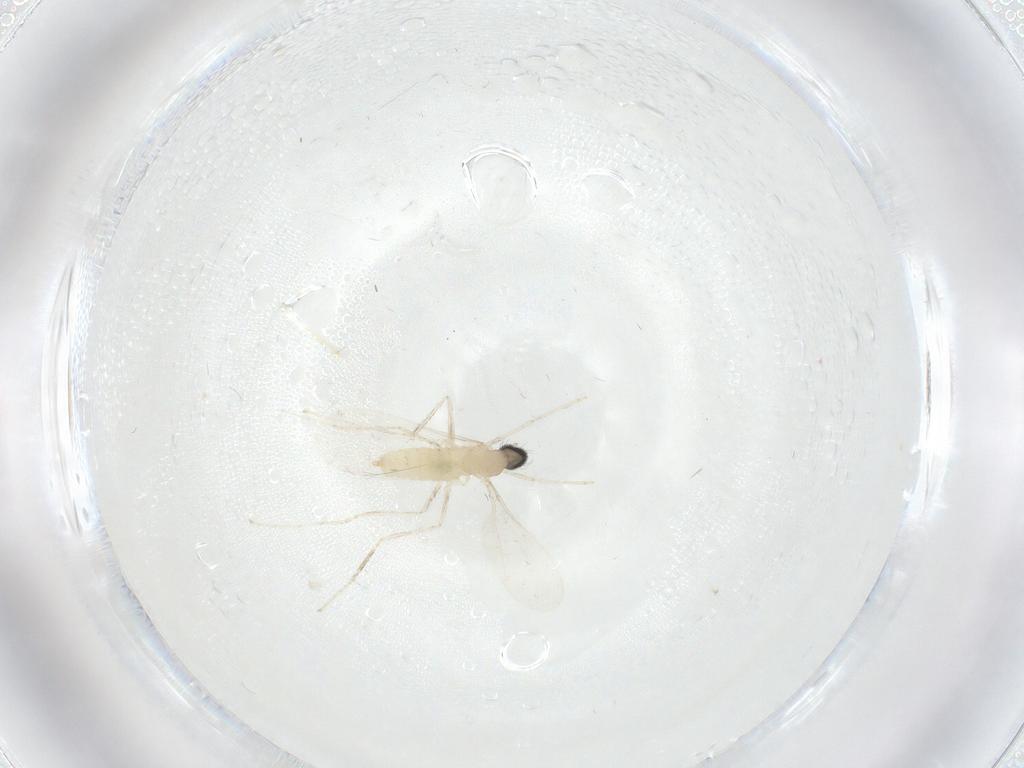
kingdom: Animalia
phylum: Arthropoda
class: Insecta
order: Diptera
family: Cecidomyiidae
